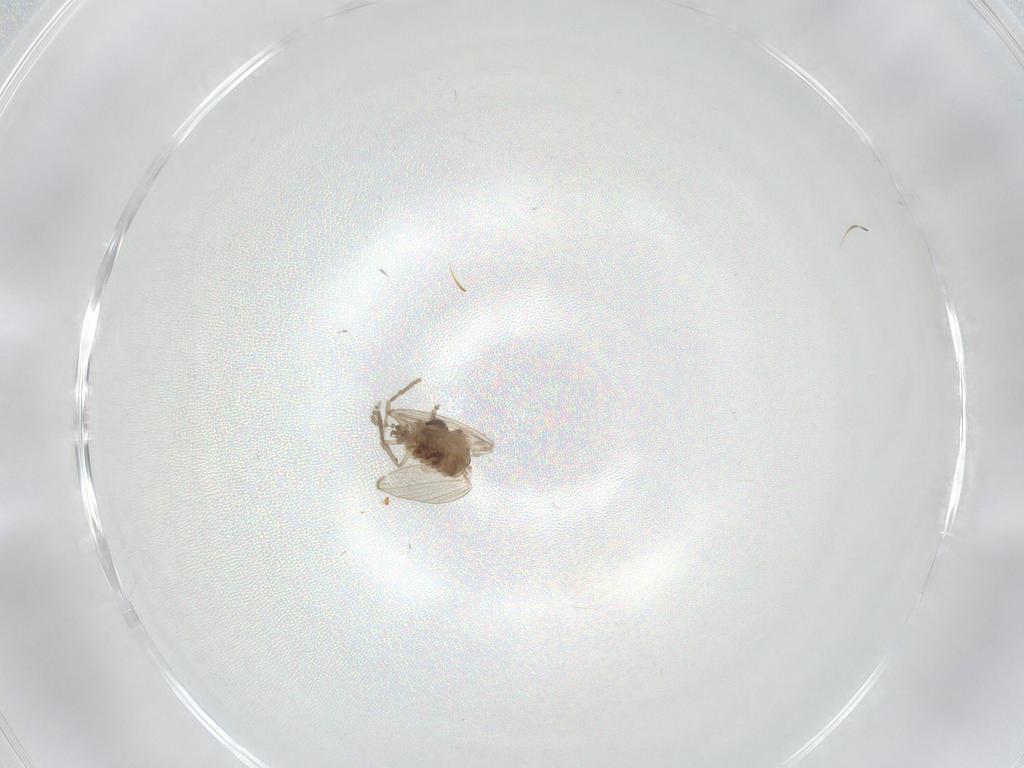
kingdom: Animalia
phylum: Arthropoda
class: Insecta
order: Diptera
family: Psychodidae
